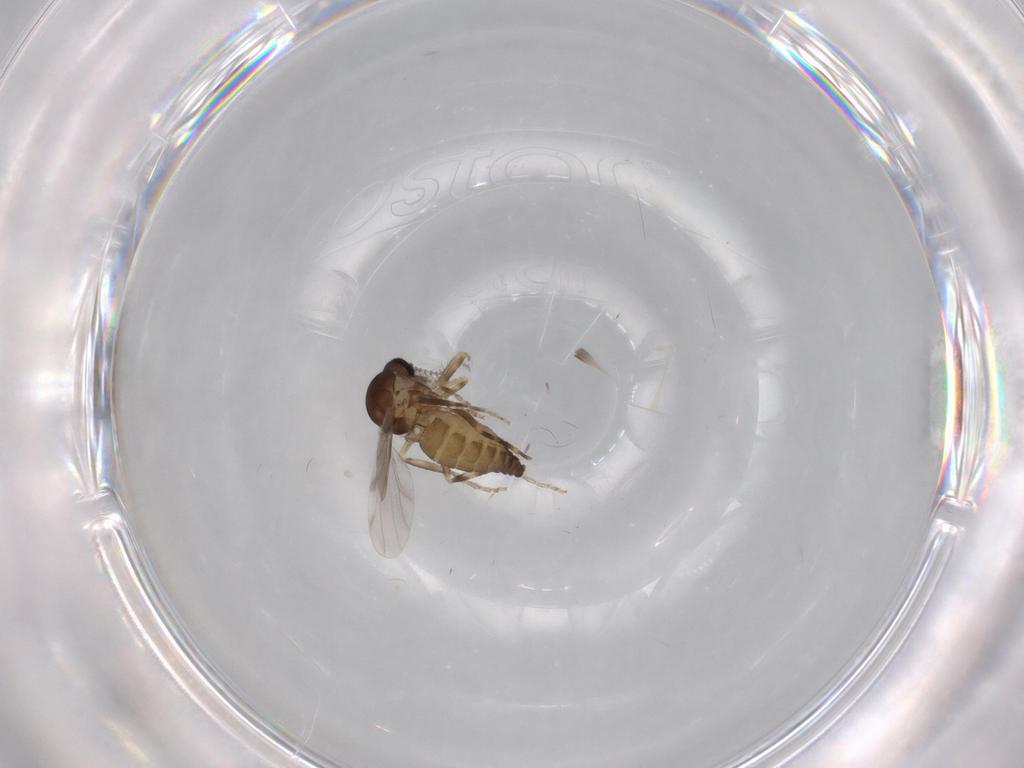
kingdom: Animalia
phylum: Arthropoda
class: Insecta
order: Diptera
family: Ceratopogonidae
